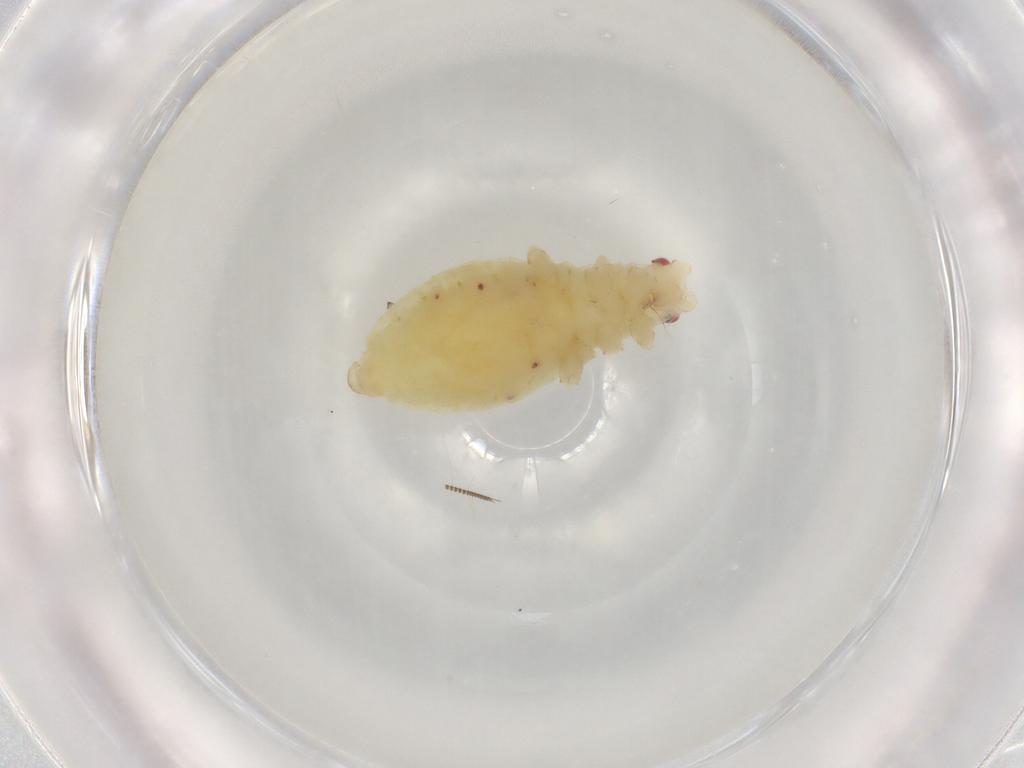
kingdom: Animalia
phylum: Arthropoda
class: Insecta
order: Hemiptera
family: Aphididae
